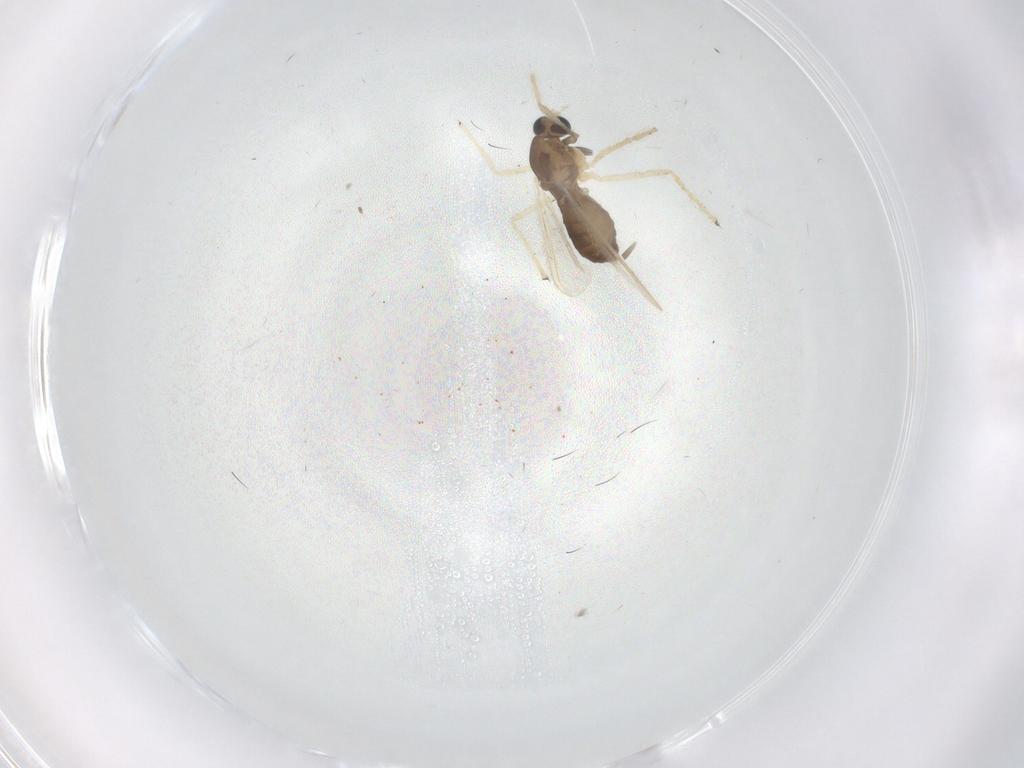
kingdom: Animalia
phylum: Arthropoda
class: Insecta
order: Diptera
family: Chironomidae
